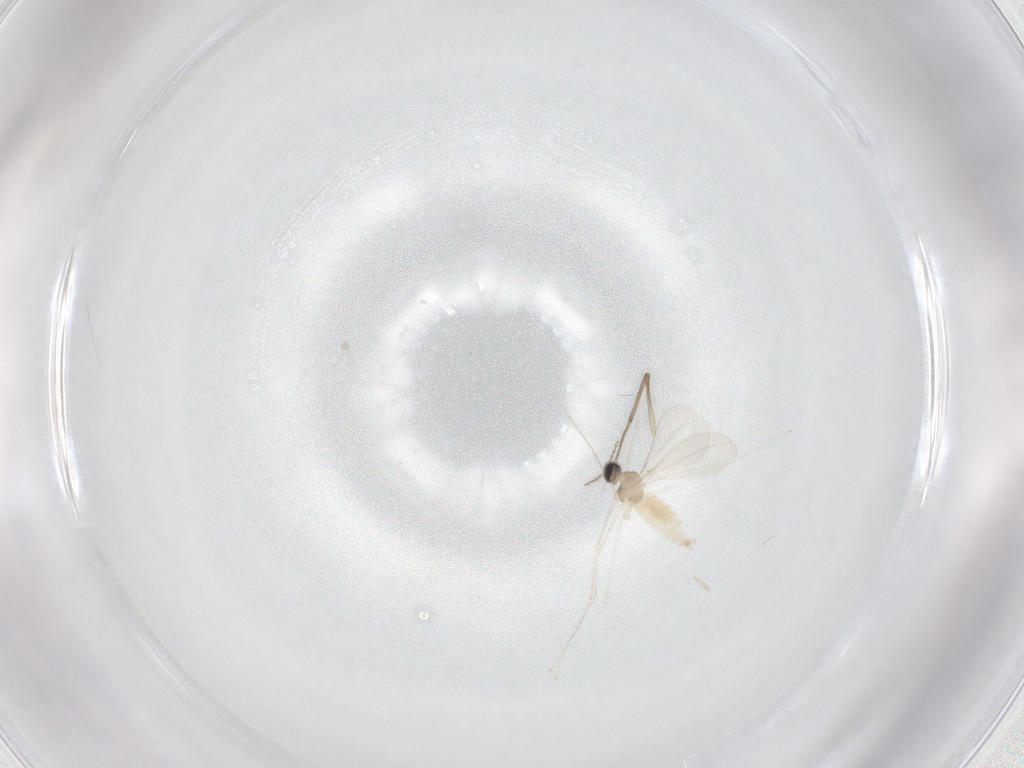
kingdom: Animalia
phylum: Arthropoda
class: Insecta
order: Diptera
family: Cecidomyiidae
